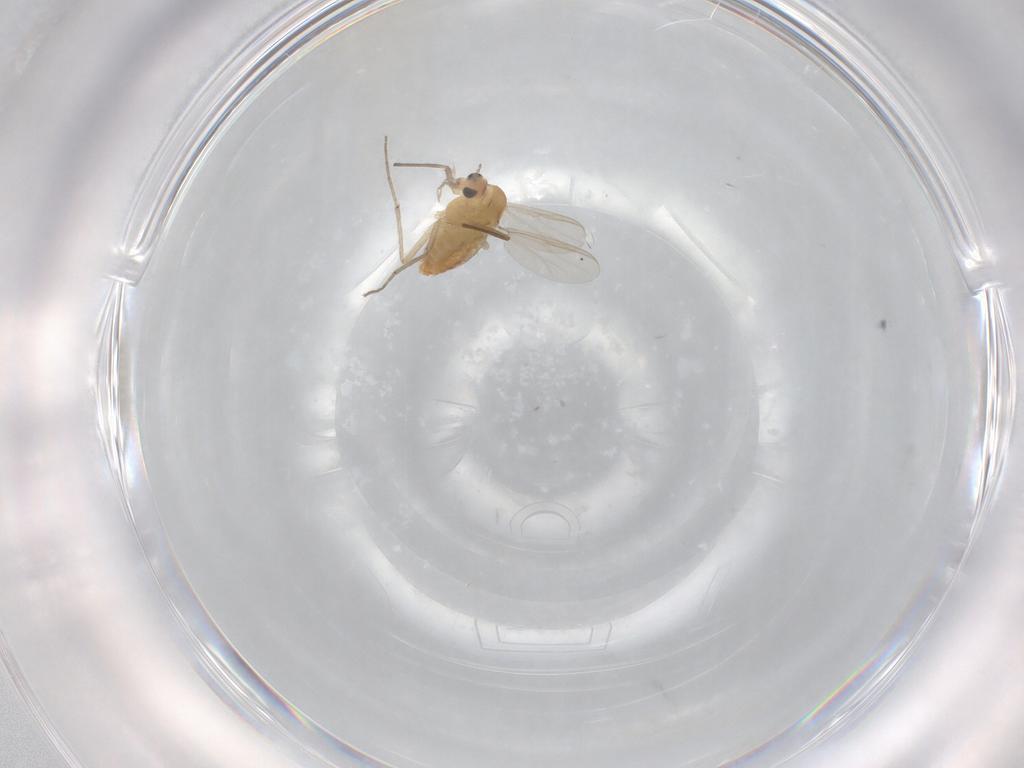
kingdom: Animalia
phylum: Arthropoda
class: Insecta
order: Diptera
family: Chironomidae
